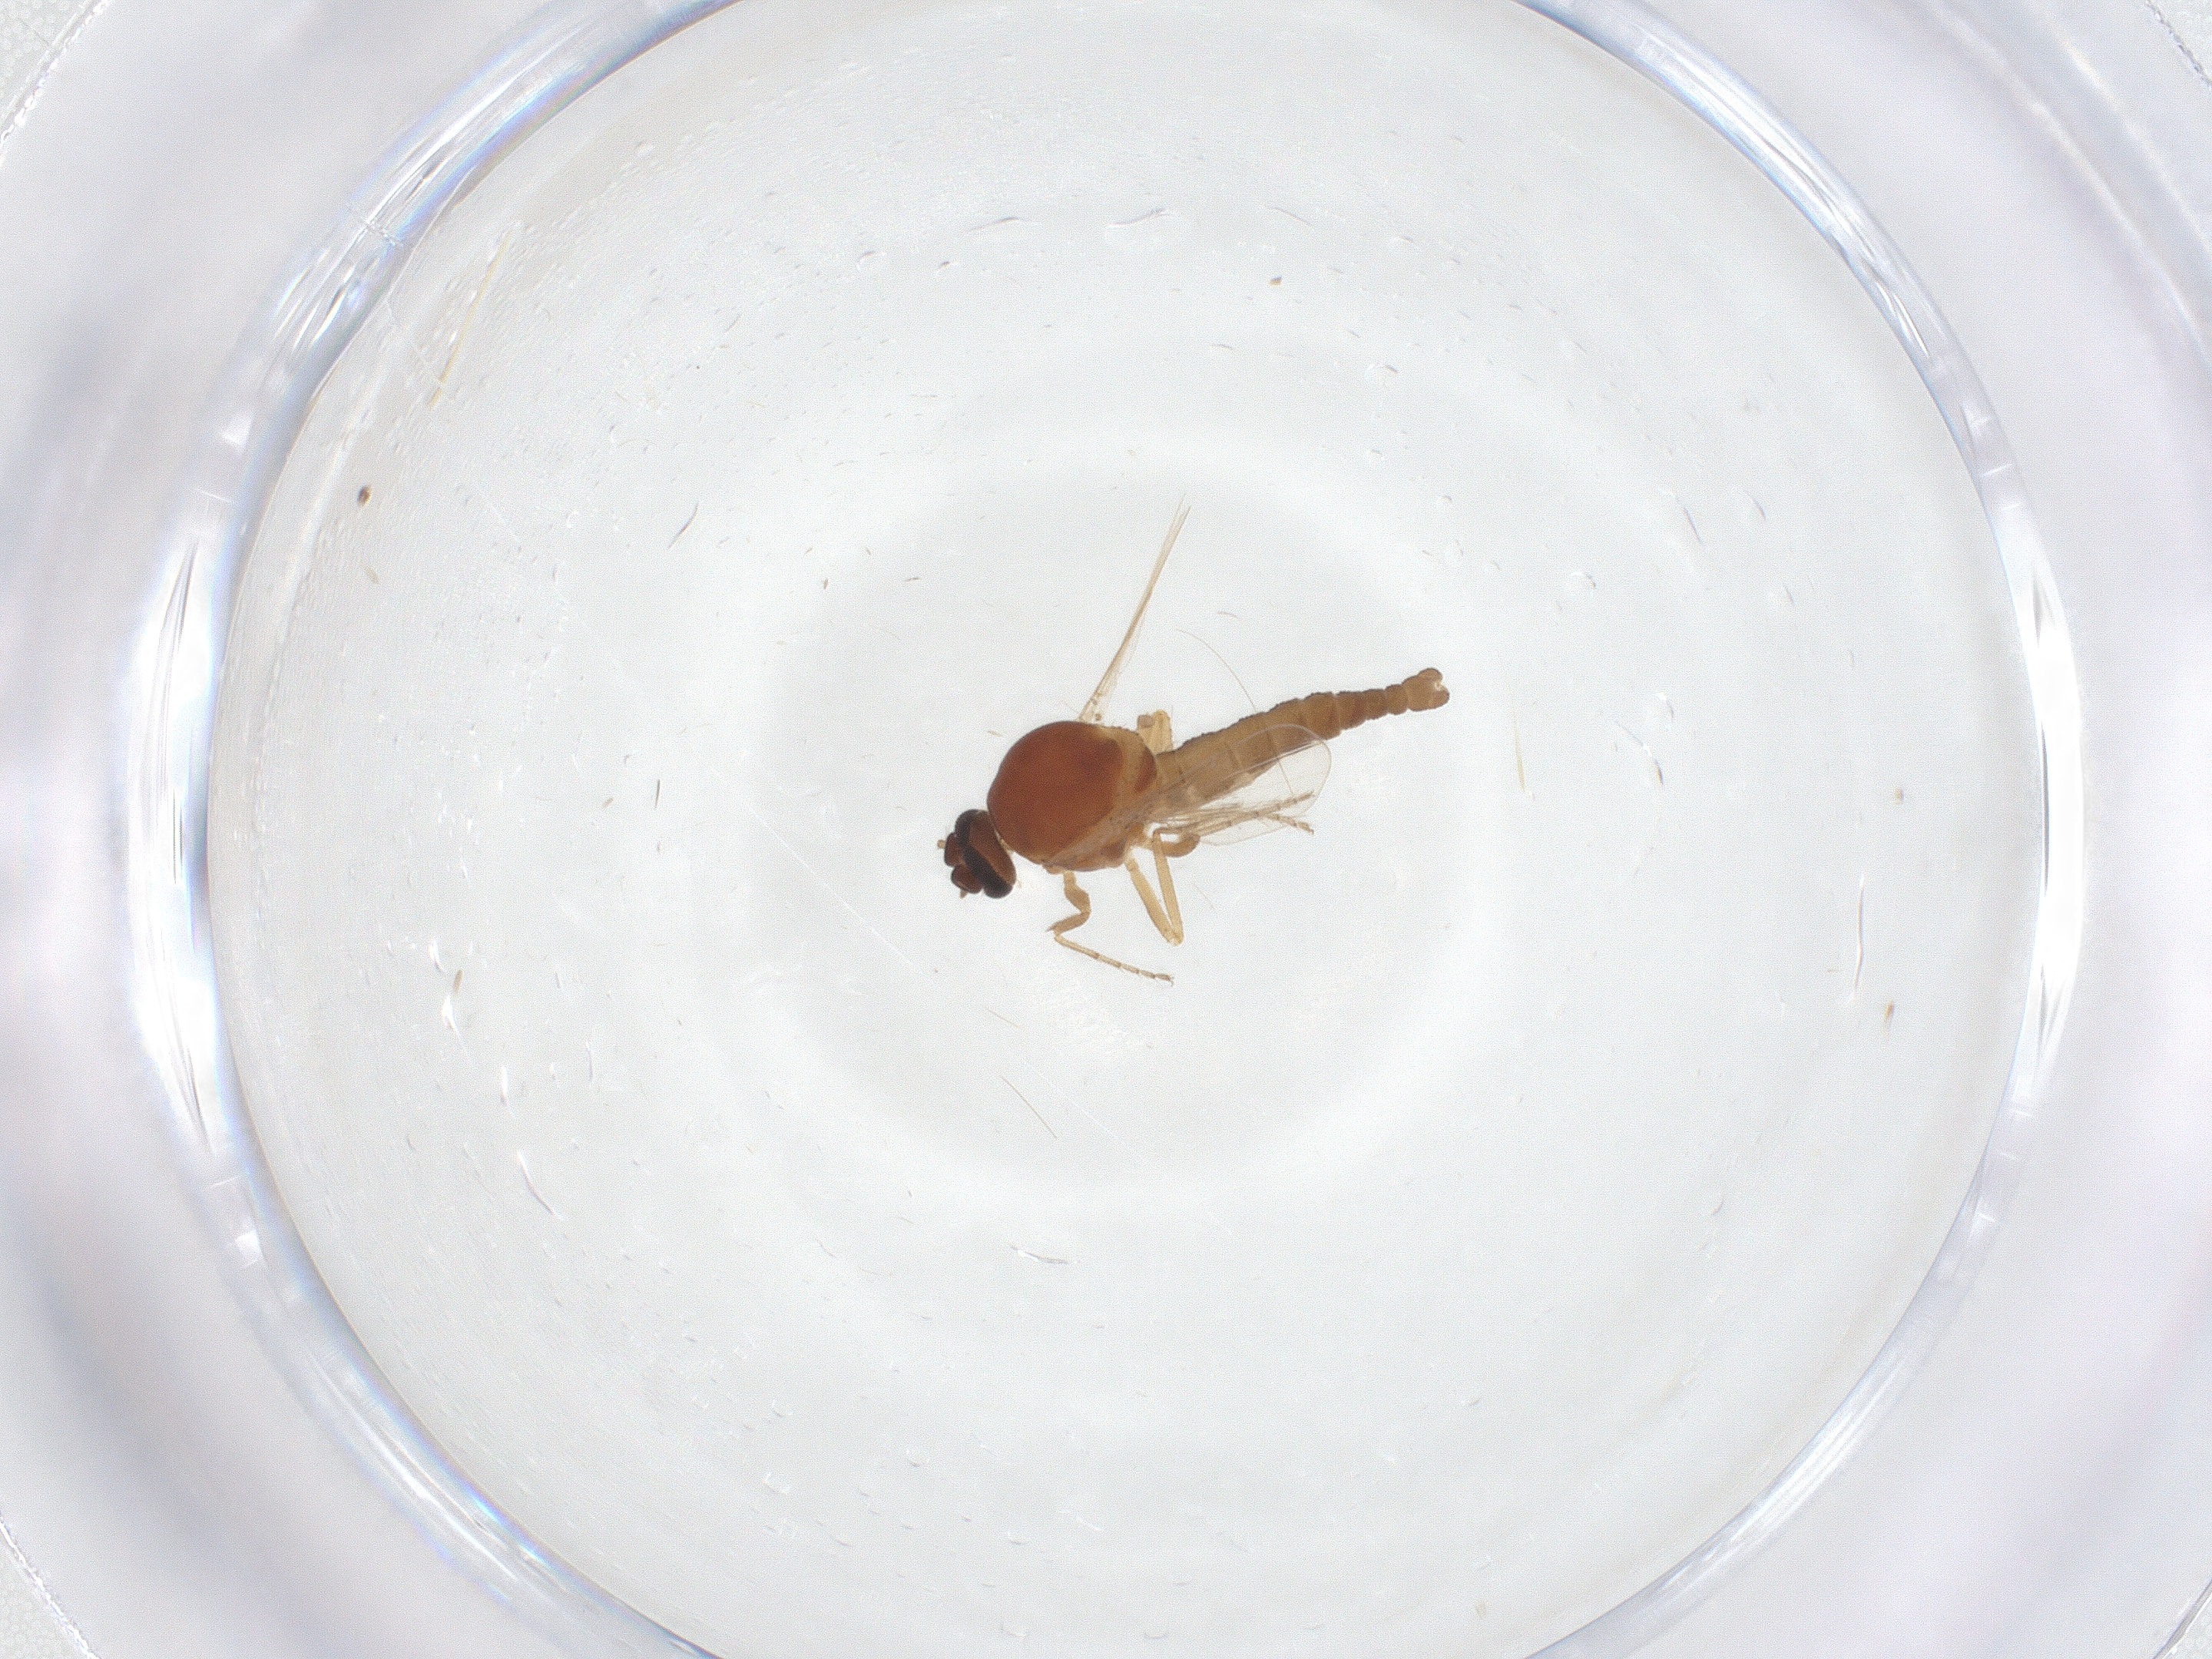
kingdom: Animalia
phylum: Arthropoda
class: Insecta
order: Diptera
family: Ceratopogonidae
